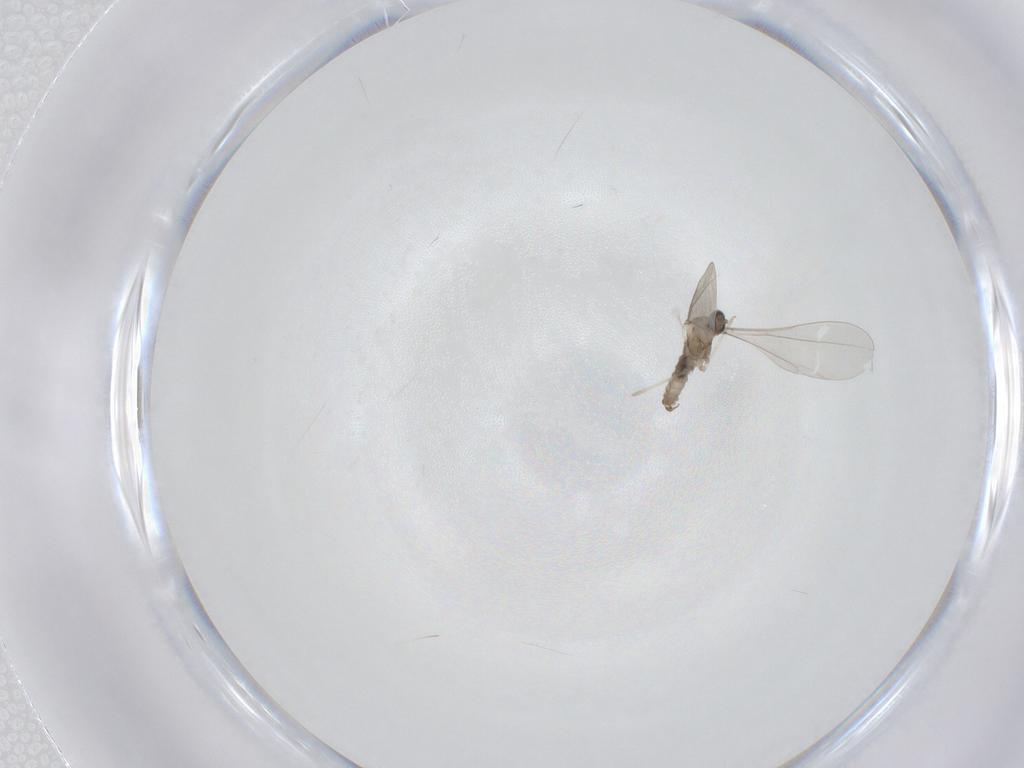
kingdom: Animalia
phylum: Arthropoda
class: Insecta
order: Diptera
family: Cecidomyiidae
